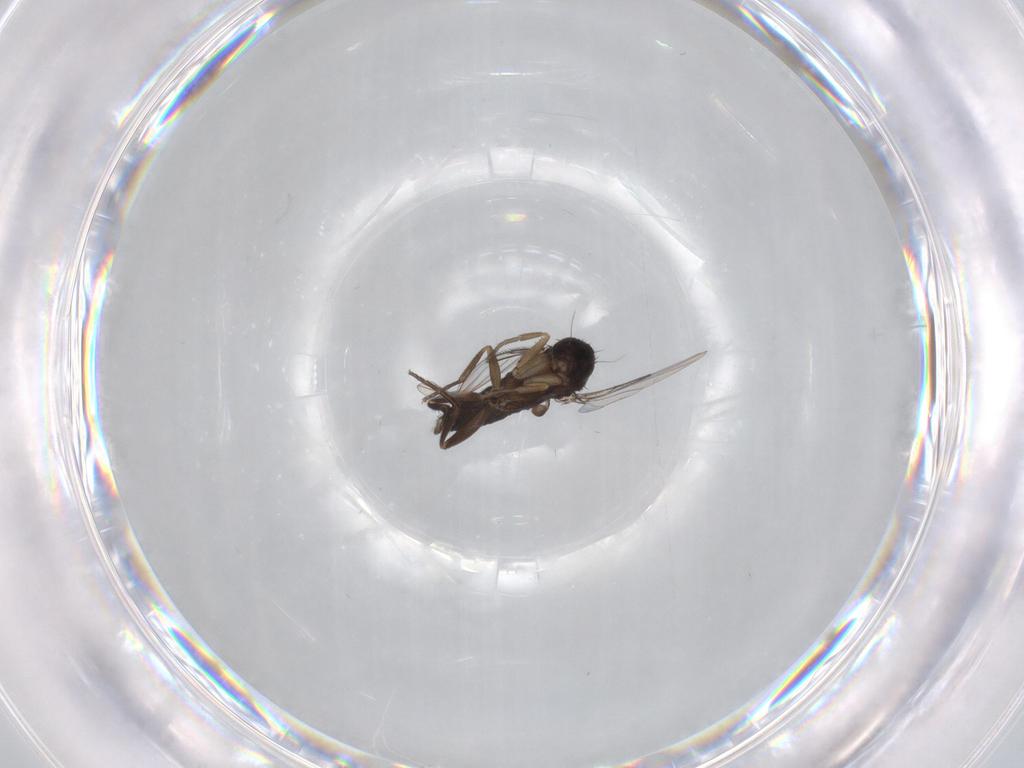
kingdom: Animalia
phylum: Arthropoda
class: Insecta
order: Diptera
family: Phoridae
